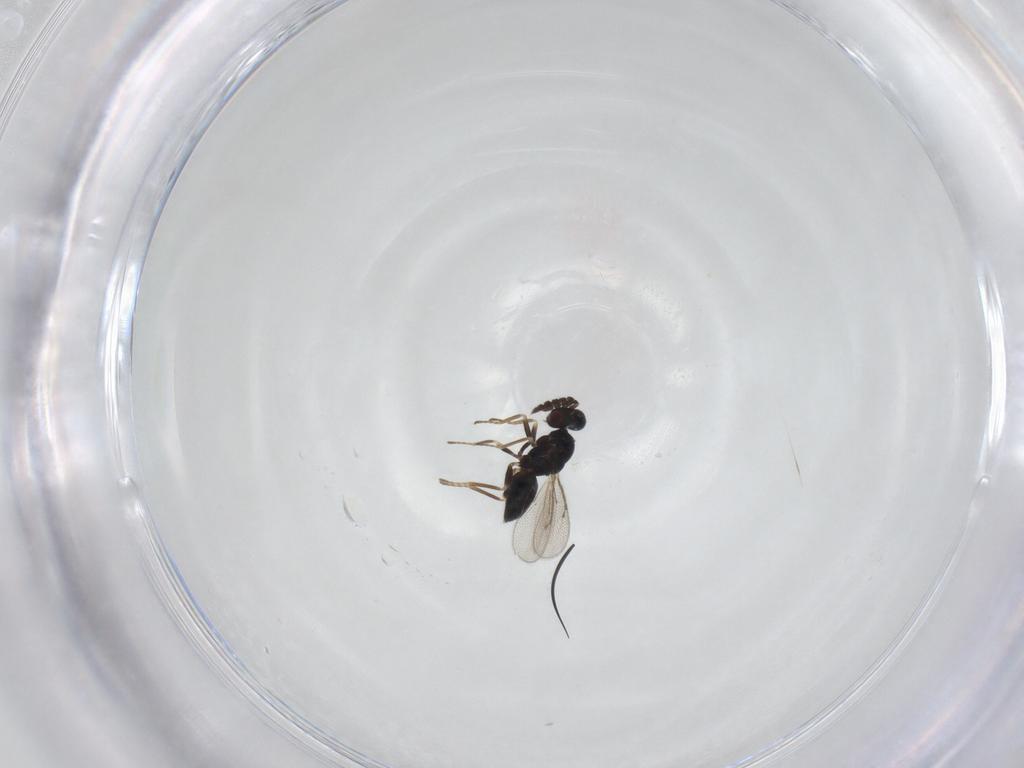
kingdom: Animalia
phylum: Arthropoda
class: Insecta
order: Hymenoptera
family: Eulophidae
